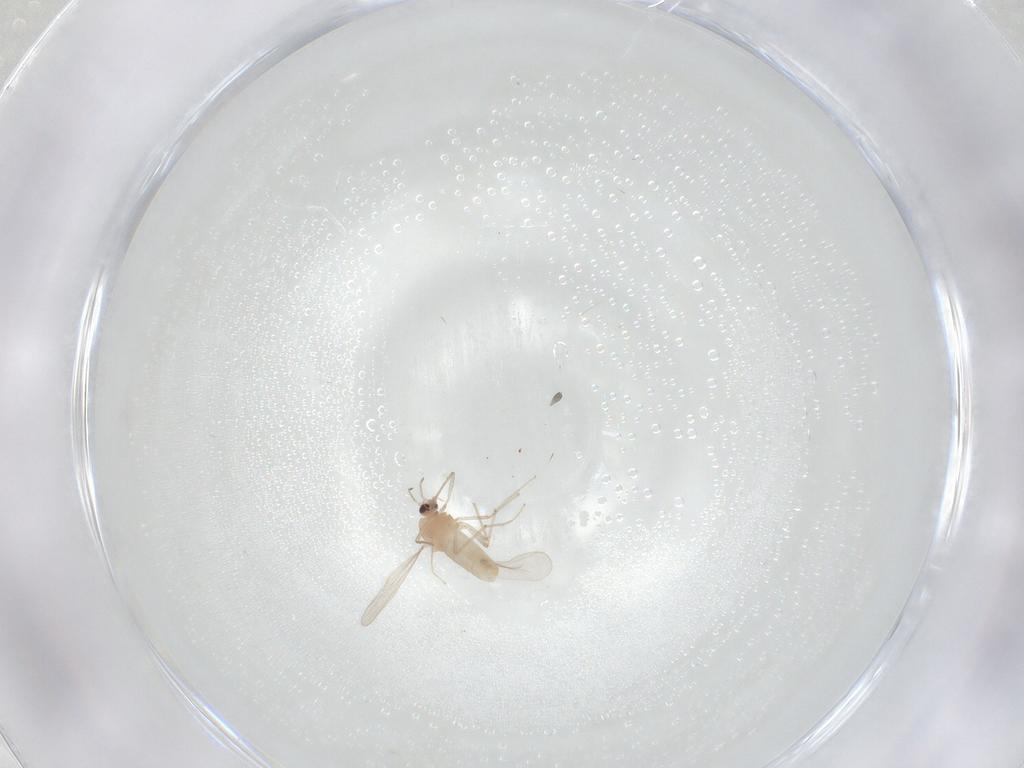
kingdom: Animalia
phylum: Arthropoda
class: Insecta
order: Diptera
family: Chironomidae
